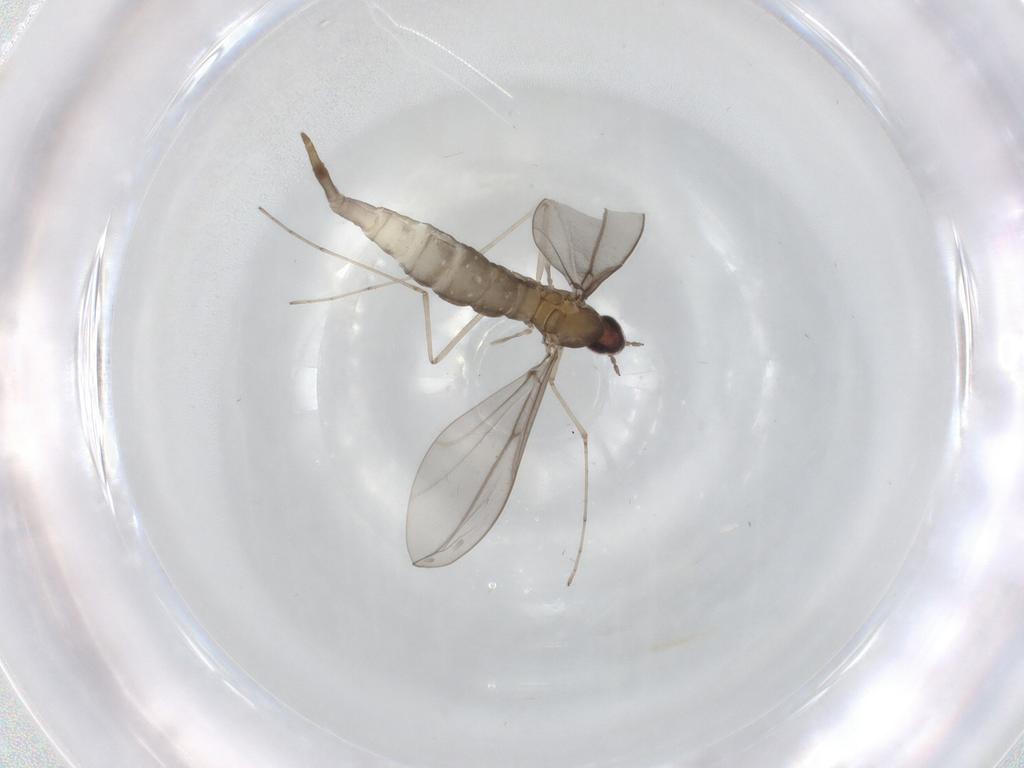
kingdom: Animalia
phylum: Arthropoda
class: Insecta
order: Diptera
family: Cecidomyiidae
